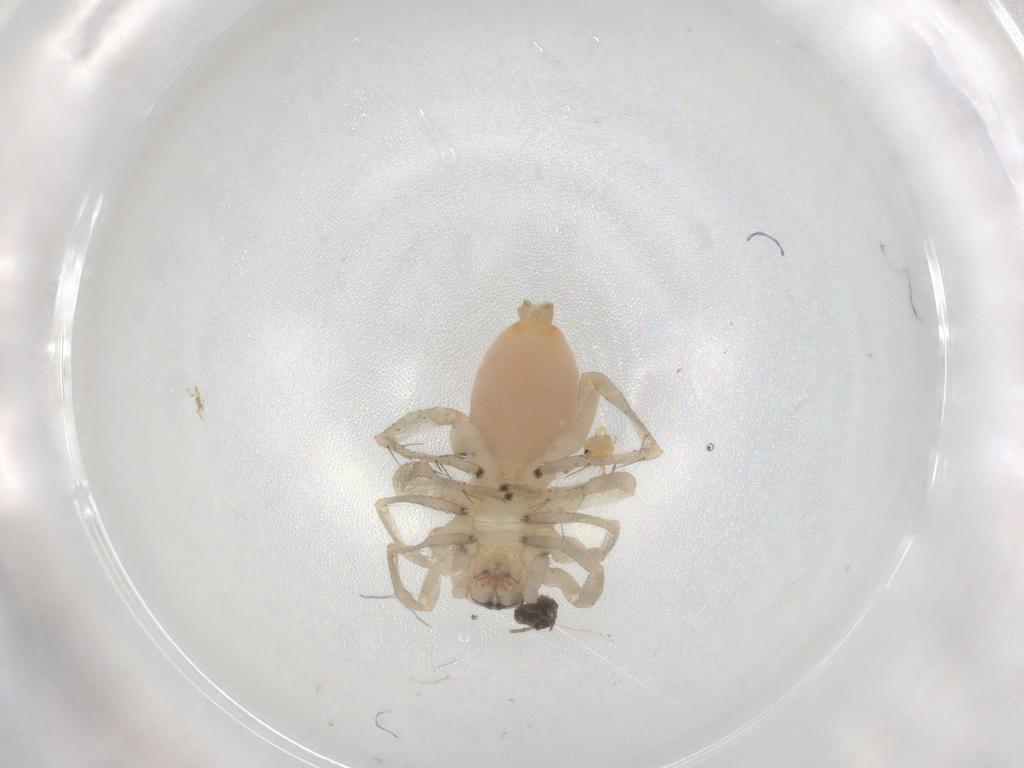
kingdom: Animalia
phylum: Arthropoda
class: Arachnida
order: Araneae
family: Clubionidae
